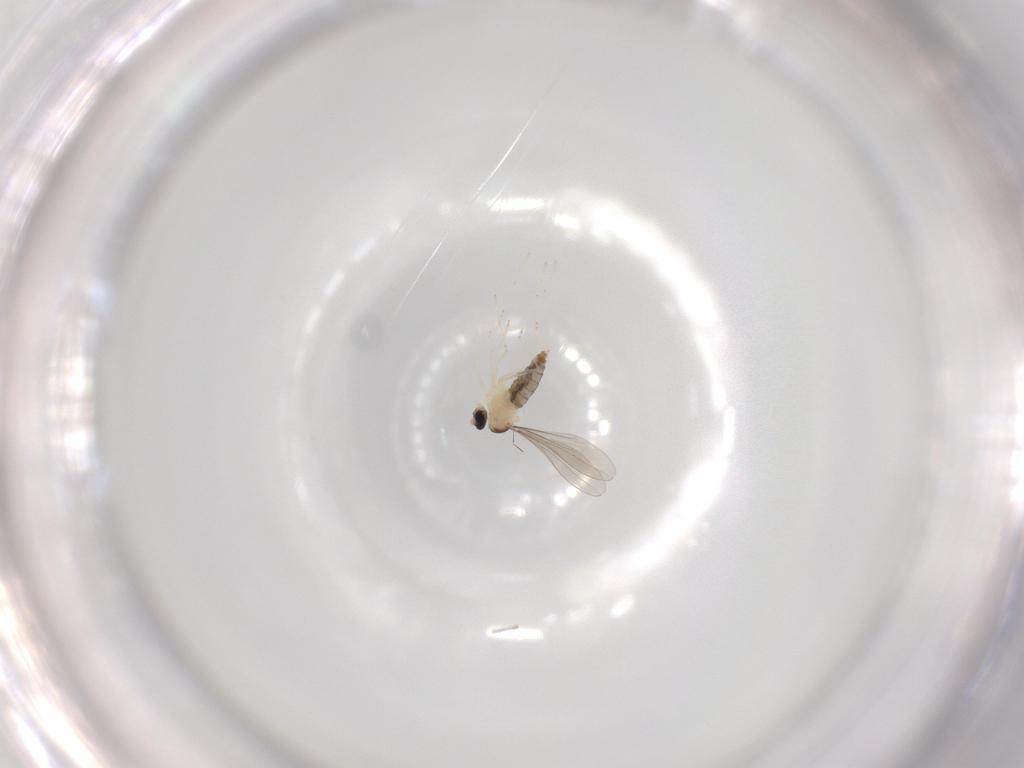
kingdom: Animalia
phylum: Arthropoda
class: Insecta
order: Diptera
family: Cecidomyiidae
